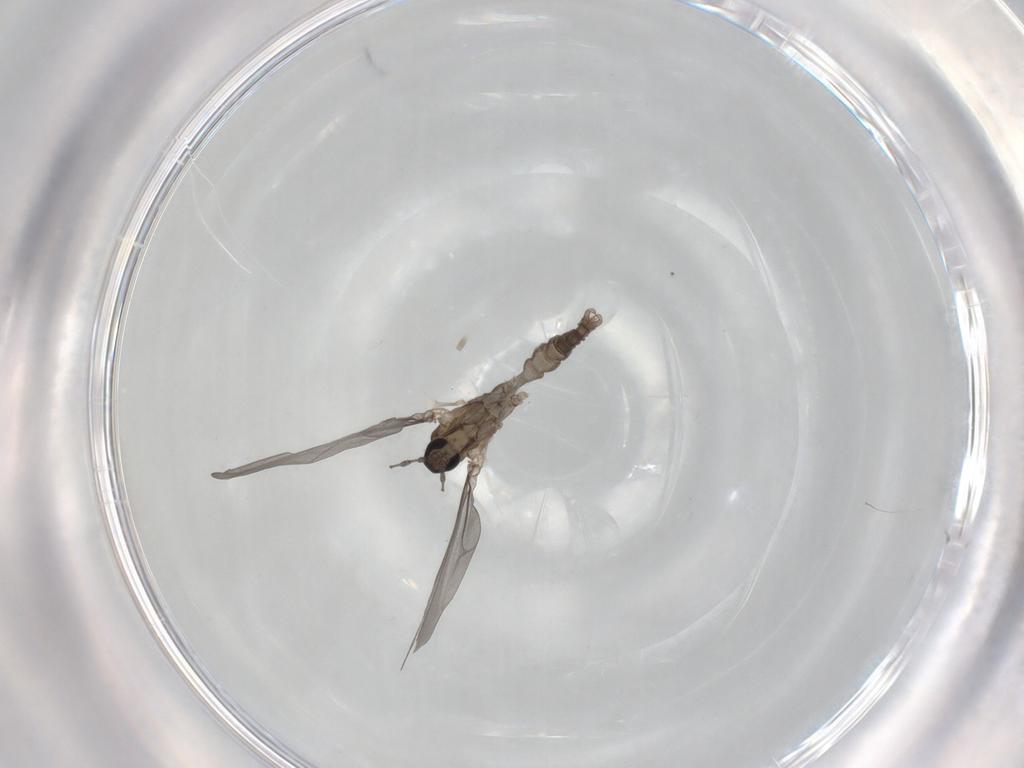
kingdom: Animalia
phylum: Arthropoda
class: Insecta
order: Diptera
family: Cecidomyiidae
